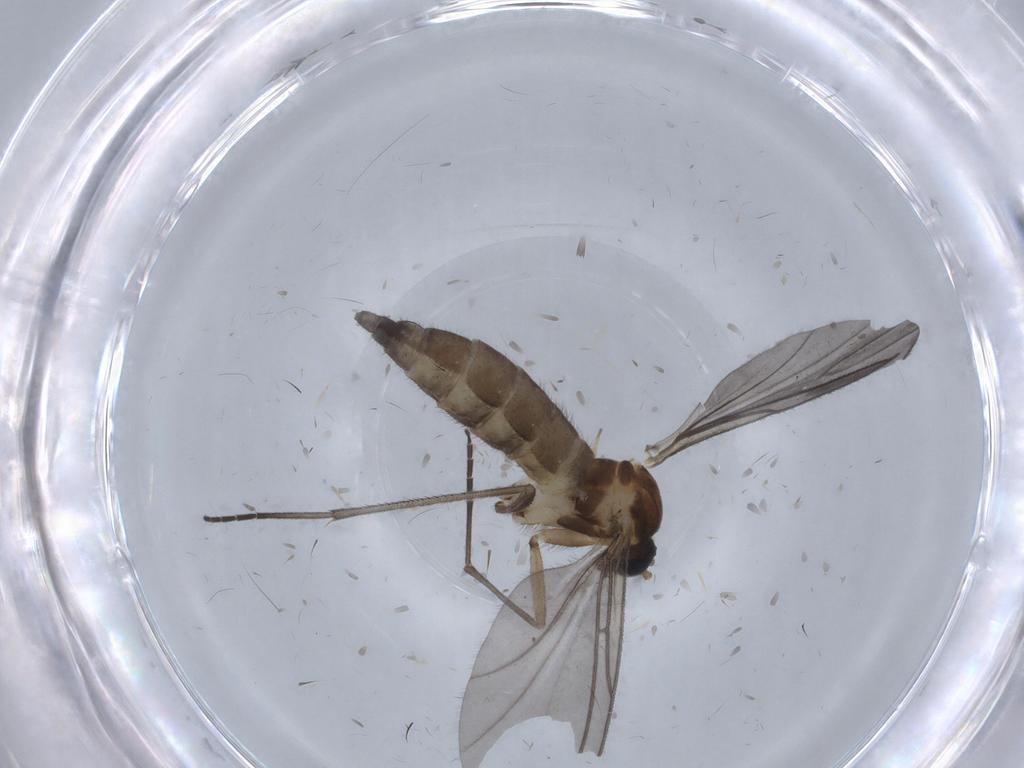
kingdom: Animalia
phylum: Arthropoda
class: Insecta
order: Diptera
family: Sciaridae
